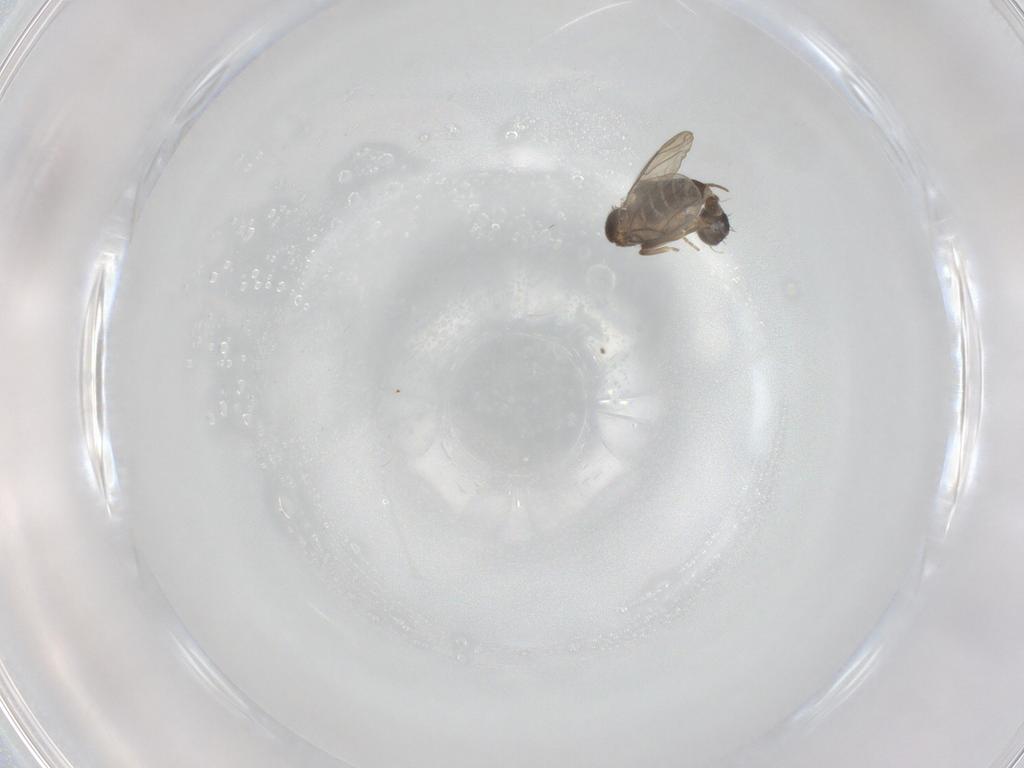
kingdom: Animalia
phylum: Arthropoda
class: Insecta
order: Diptera
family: Phoridae
